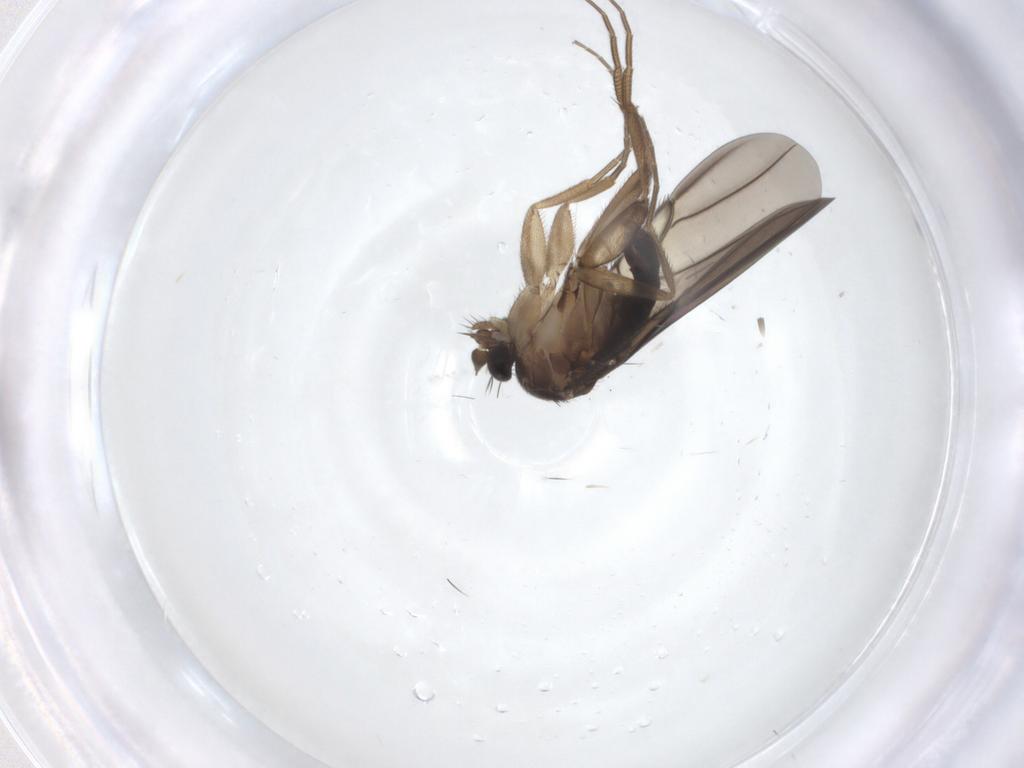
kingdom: Animalia
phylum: Arthropoda
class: Insecta
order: Diptera
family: Phoridae
